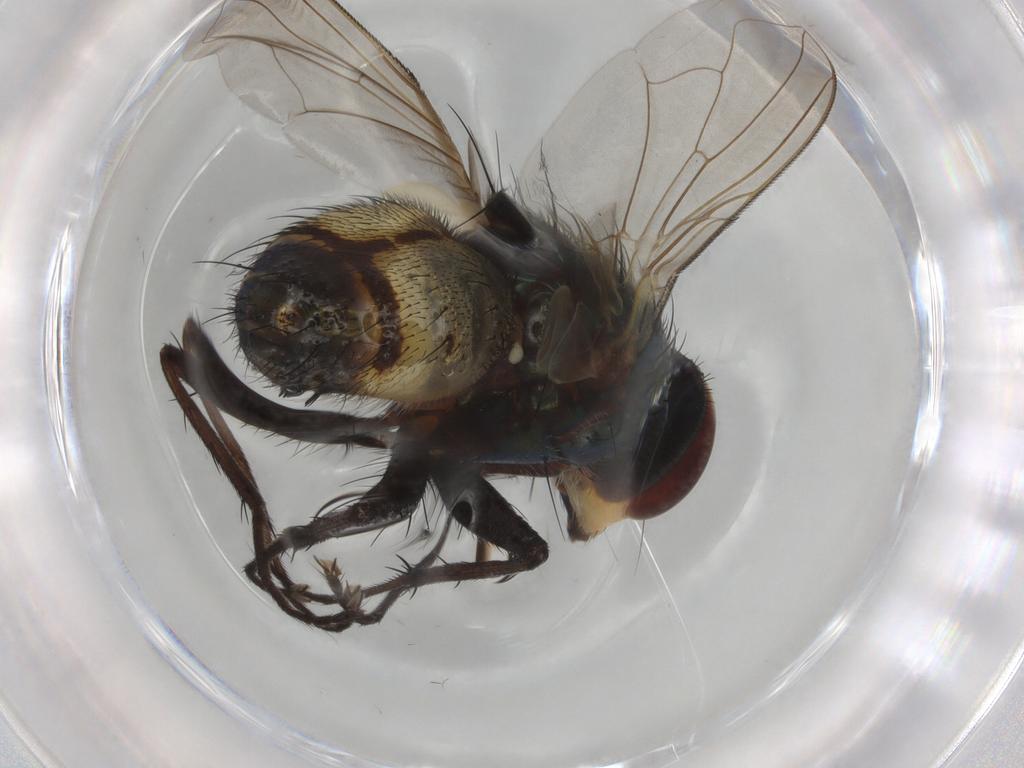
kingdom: Animalia
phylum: Arthropoda
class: Insecta
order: Diptera
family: Calliphoridae
